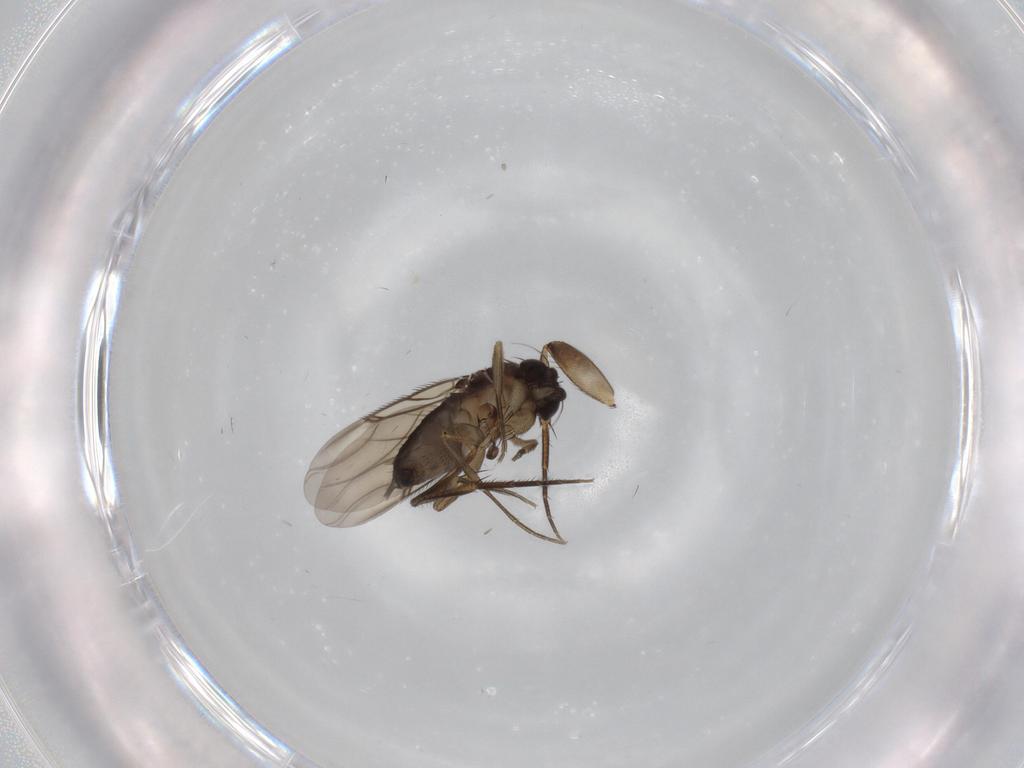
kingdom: Animalia
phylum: Arthropoda
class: Insecta
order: Diptera
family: Phoridae
